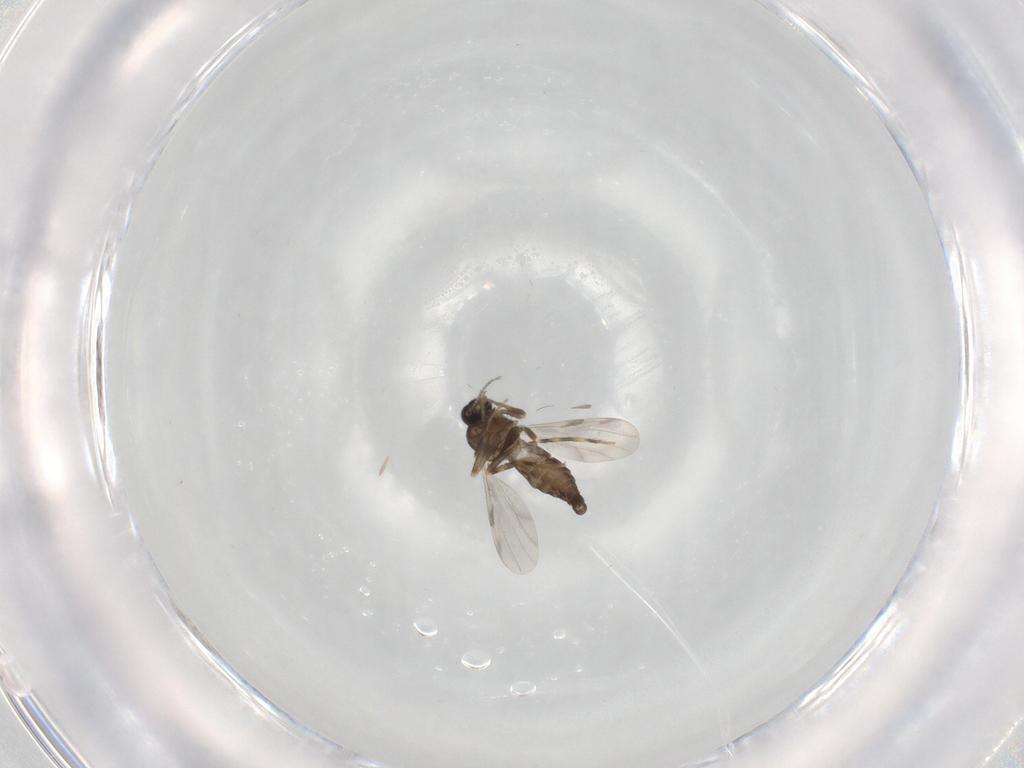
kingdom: Animalia
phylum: Arthropoda
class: Insecta
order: Diptera
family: Ceratopogonidae
